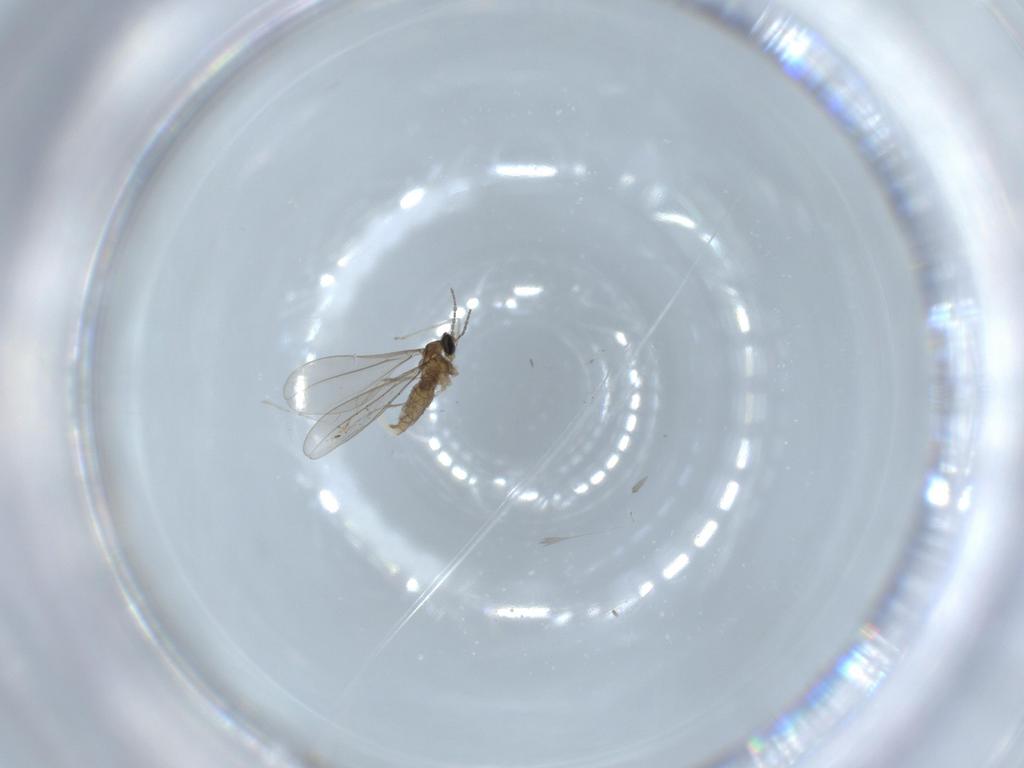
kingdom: Animalia
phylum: Arthropoda
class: Insecta
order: Diptera
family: Cecidomyiidae
